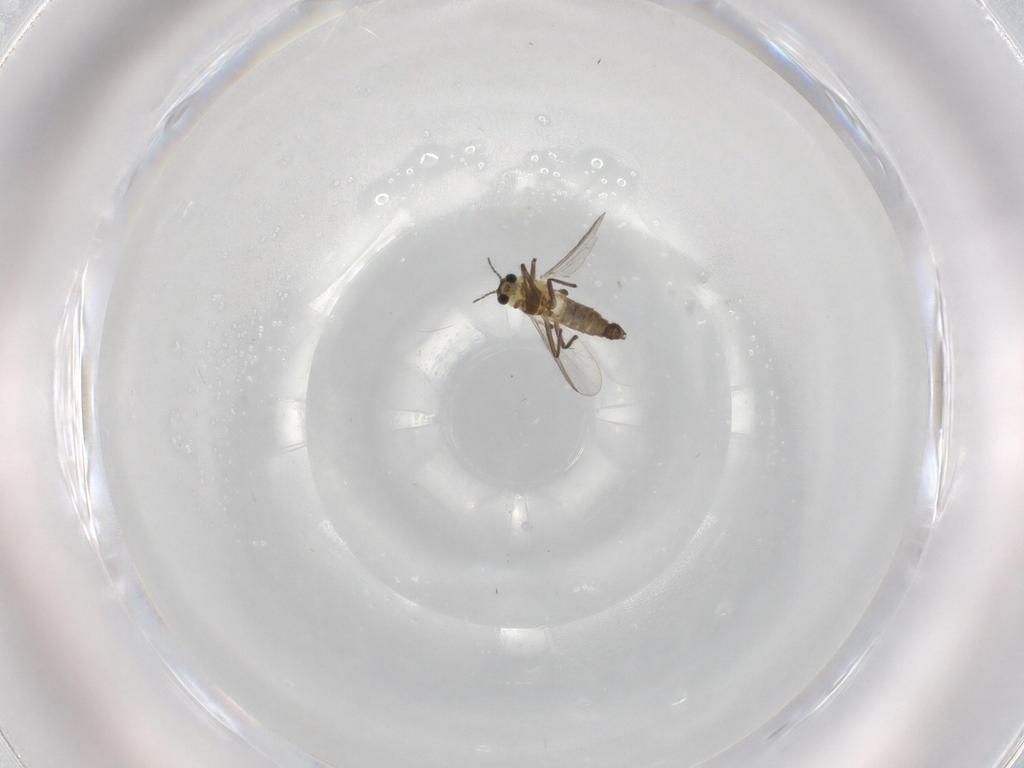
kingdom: Animalia
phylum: Arthropoda
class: Insecta
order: Diptera
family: Chironomidae
